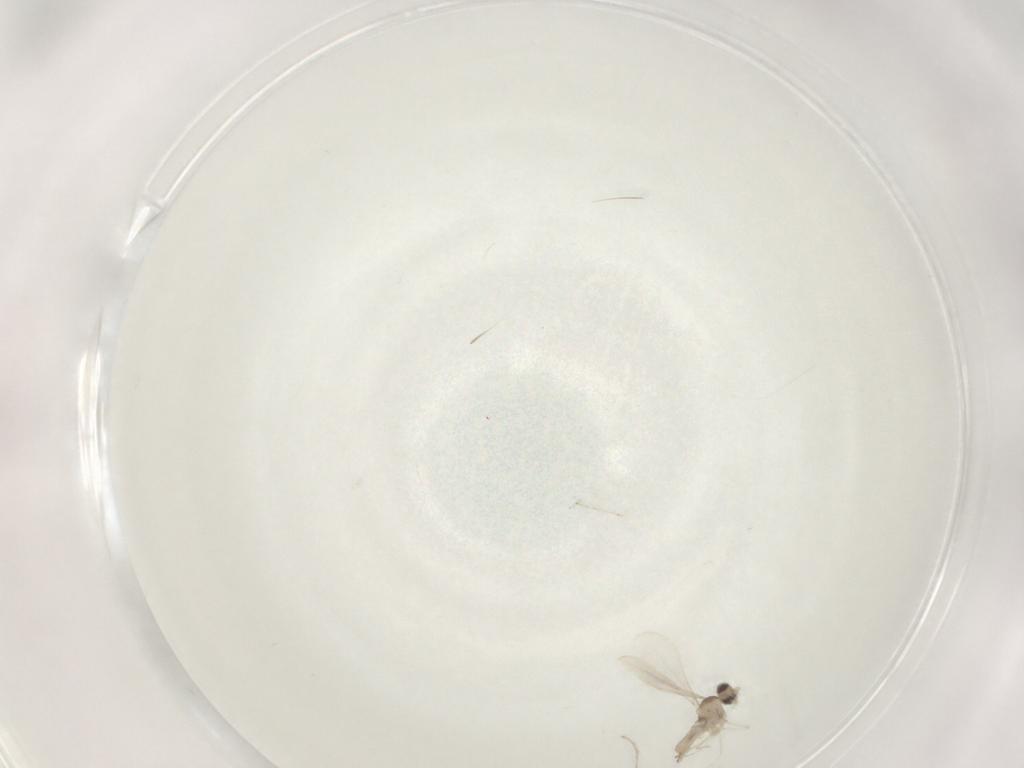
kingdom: Animalia
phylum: Arthropoda
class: Insecta
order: Diptera
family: Cecidomyiidae
